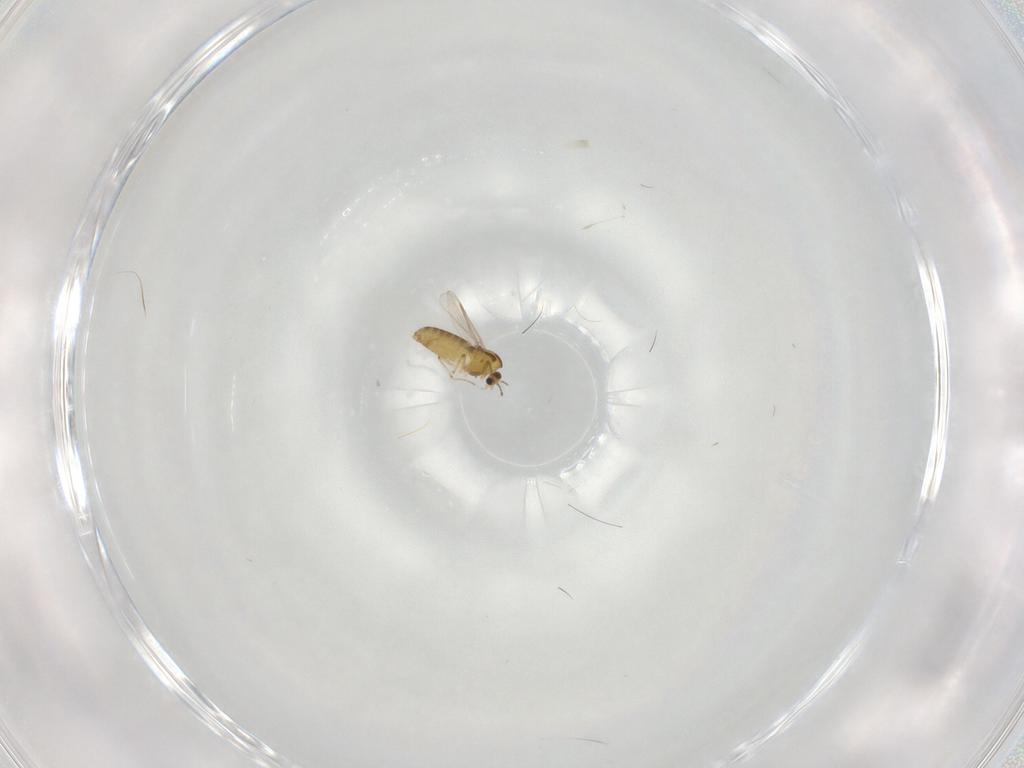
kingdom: Animalia
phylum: Arthropoda
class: Insecta
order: Diptera
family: Chironomidae
